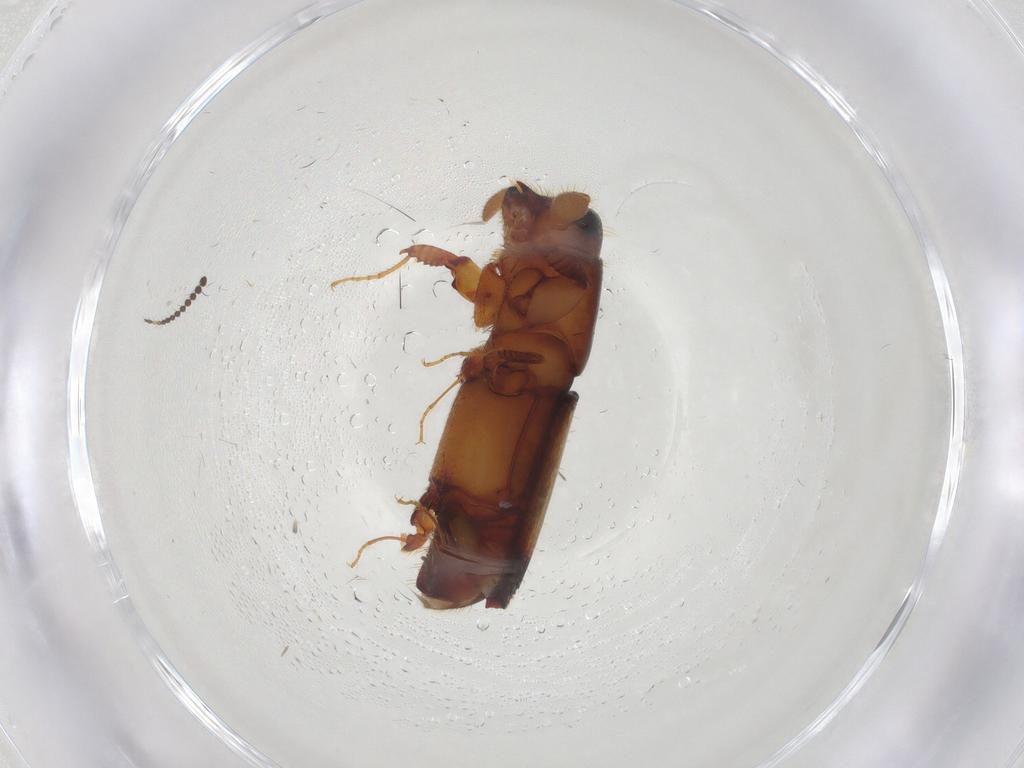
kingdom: Animalia
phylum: Arthropoda
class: Insecta
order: Coleoptera
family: Curculionidae
